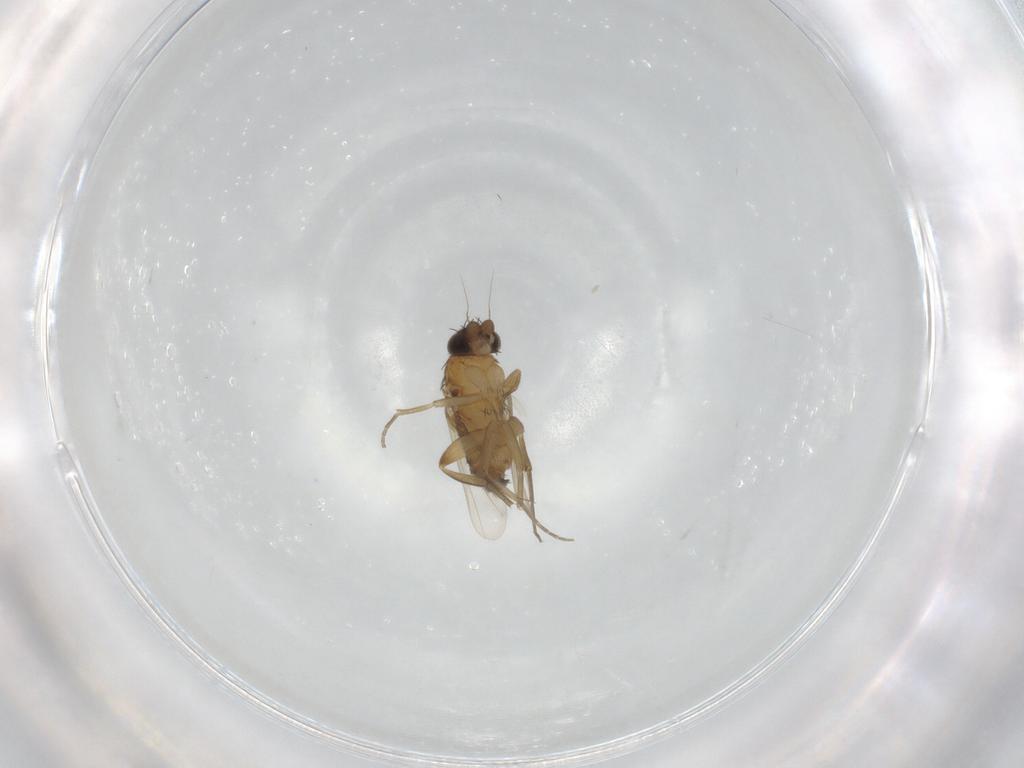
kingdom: Animalia
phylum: Arthropoda
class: Insecta
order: Diptera
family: Phoridae
